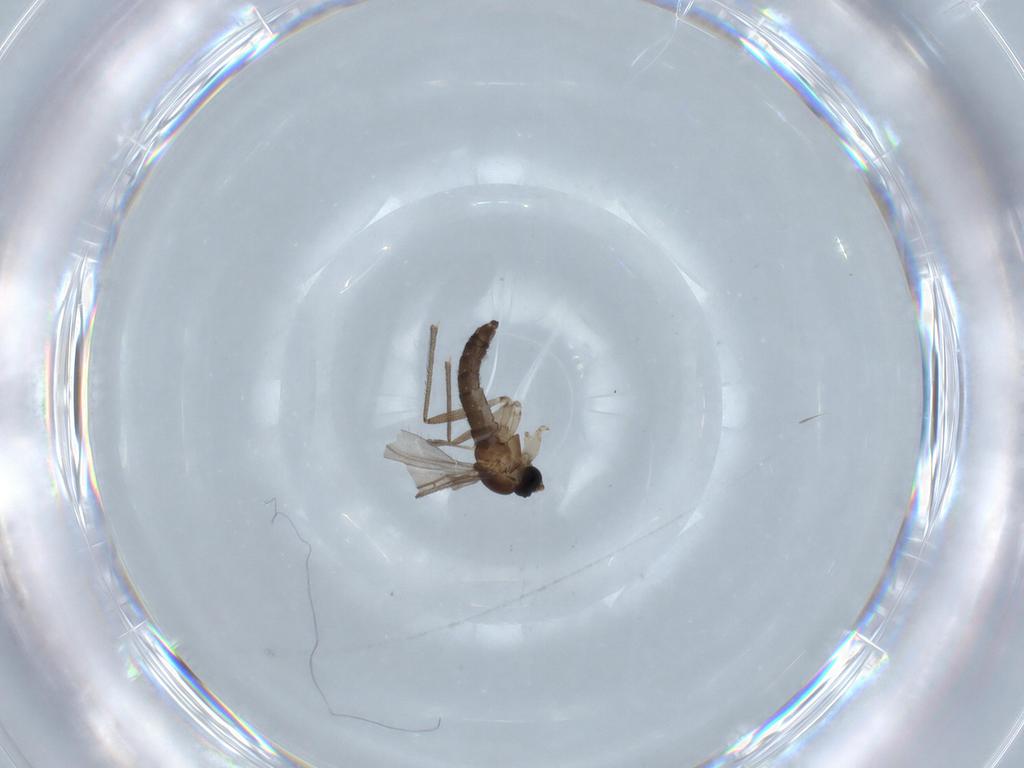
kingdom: Animalia
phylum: Arthropoda
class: Insecta
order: Diptera
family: Sciaridae
